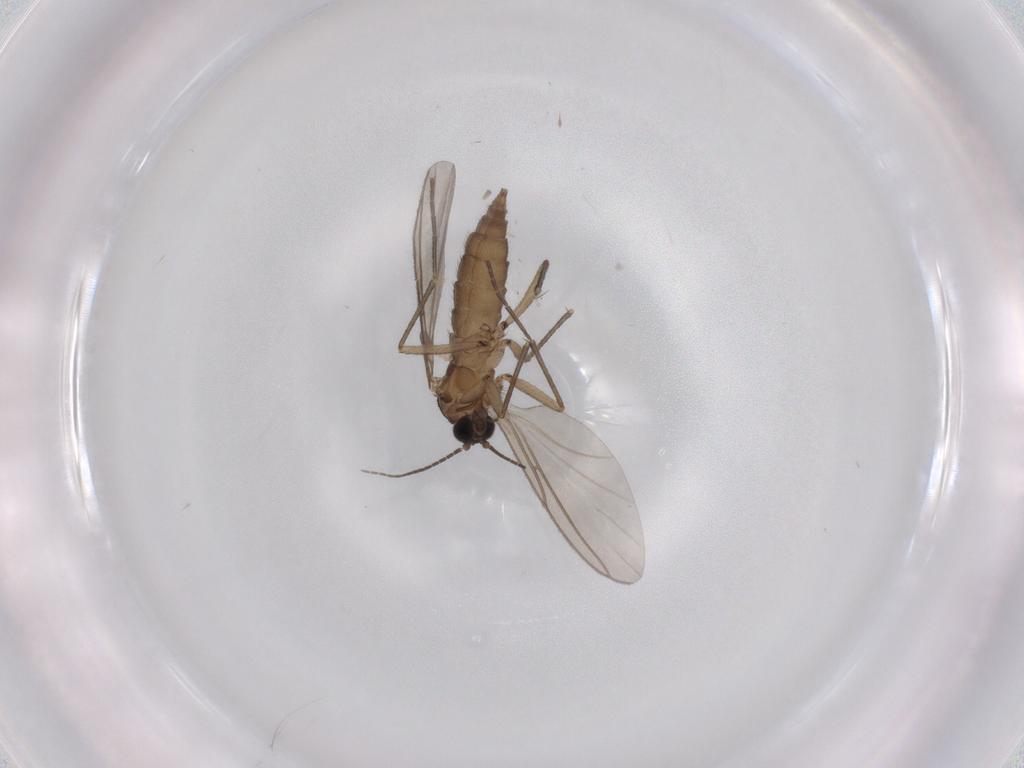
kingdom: Animalia
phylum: Arthropoda
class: Insecta
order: Diptera
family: Sciaridae
